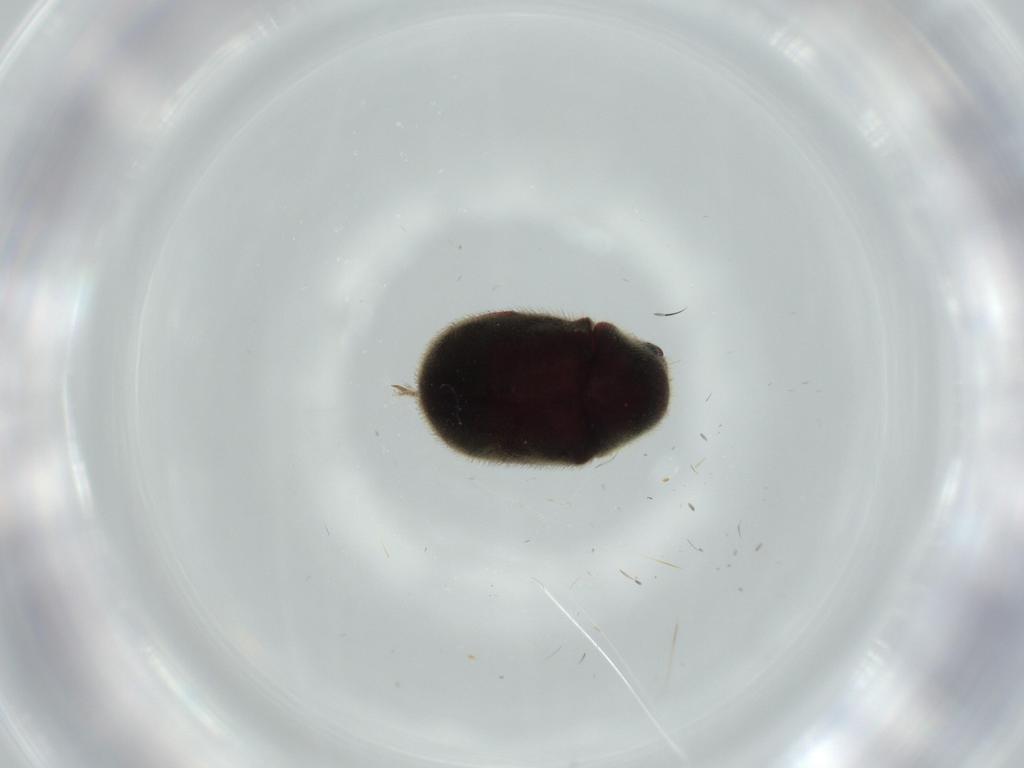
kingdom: Animalia
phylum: Arthropoda
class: Insecta
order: Coleoptera
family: Ptinidae
